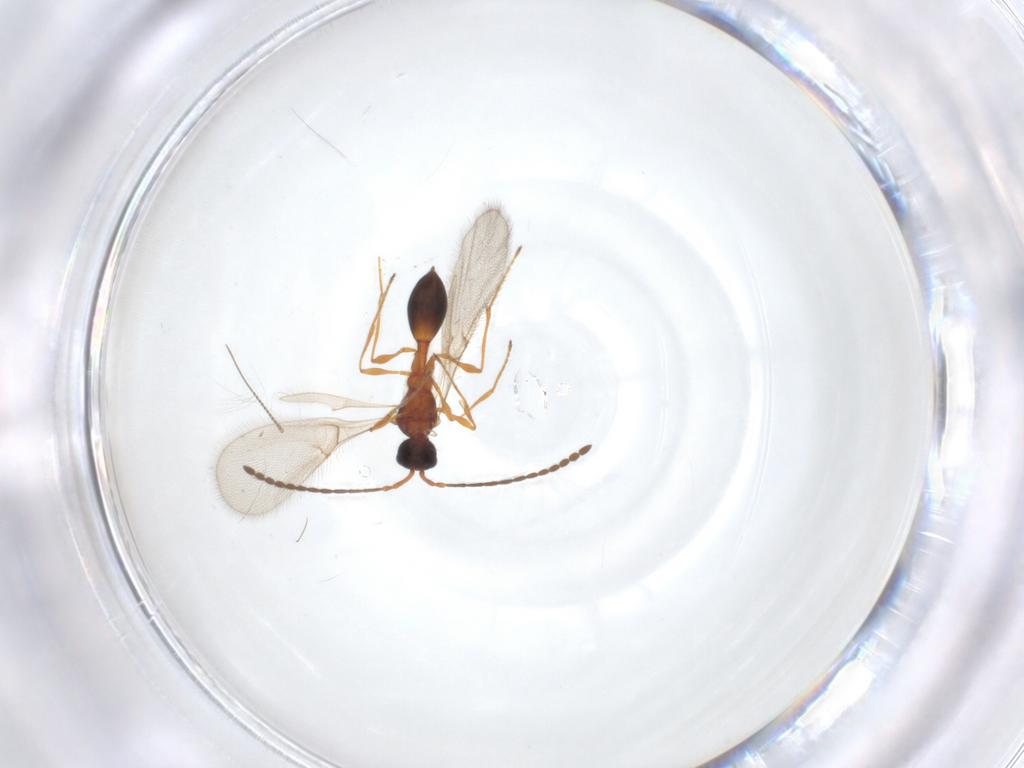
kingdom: Animalia
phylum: Arthropoda
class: Insecta
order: Hymenoptera
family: Diapriidae
